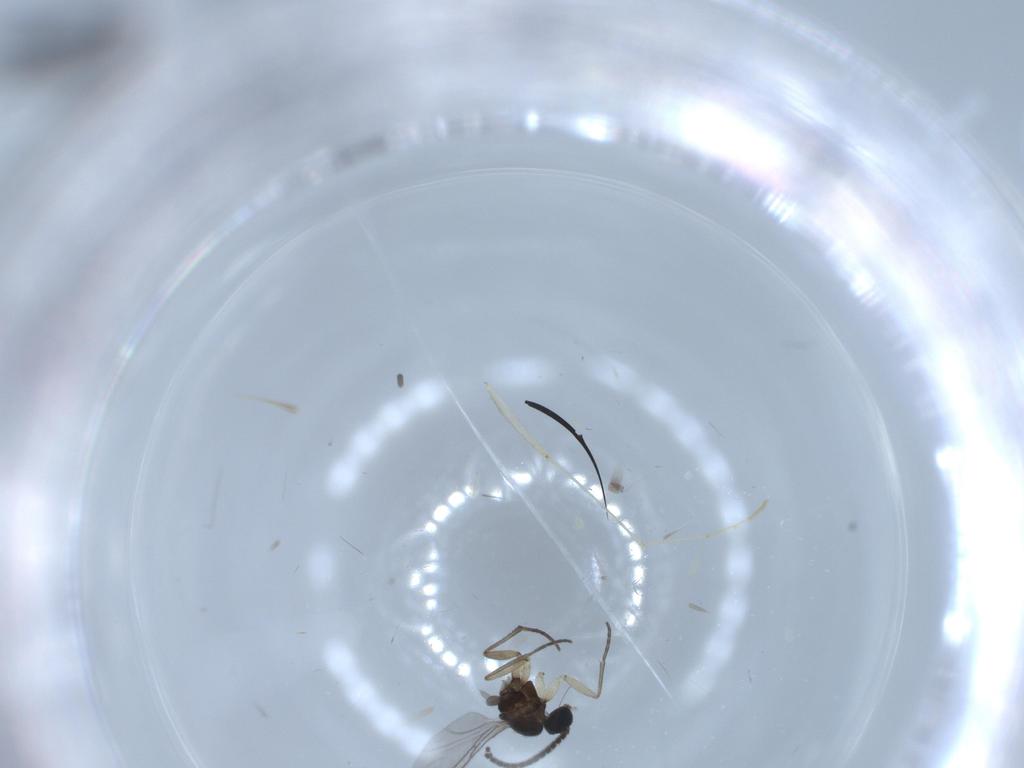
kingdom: Animalia
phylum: Arthropoda
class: Insecta
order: Diptera
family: Sciaridae
